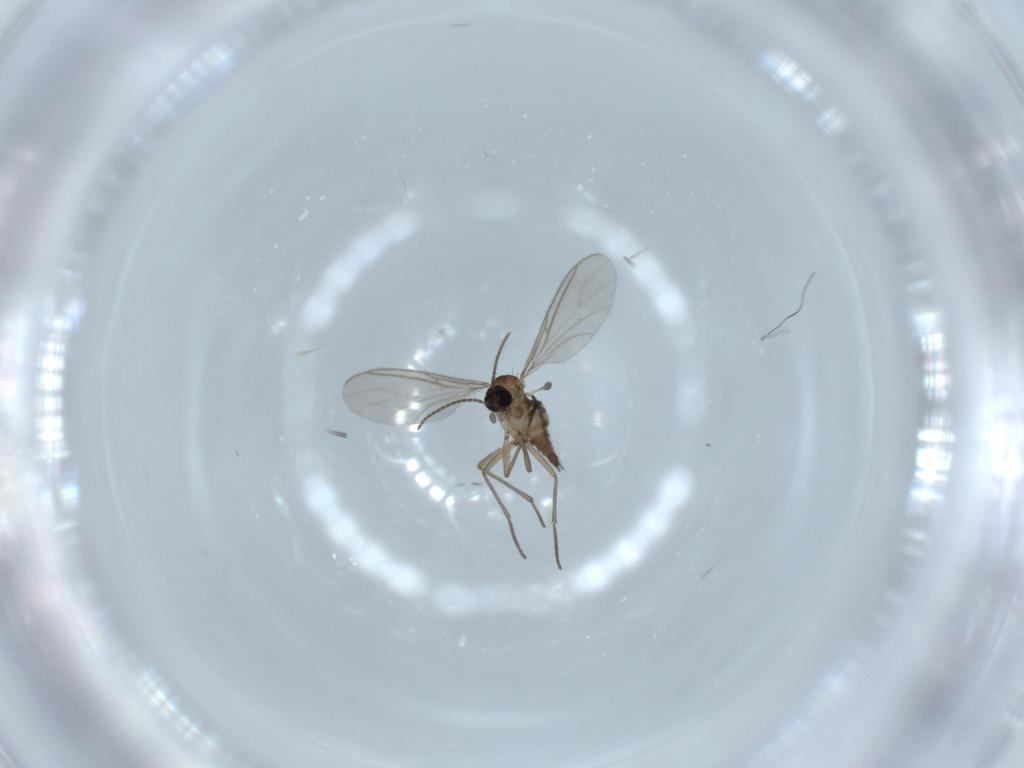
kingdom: Animalia
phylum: Arthropoda
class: Insecta
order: Diptera
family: Sciaridae
